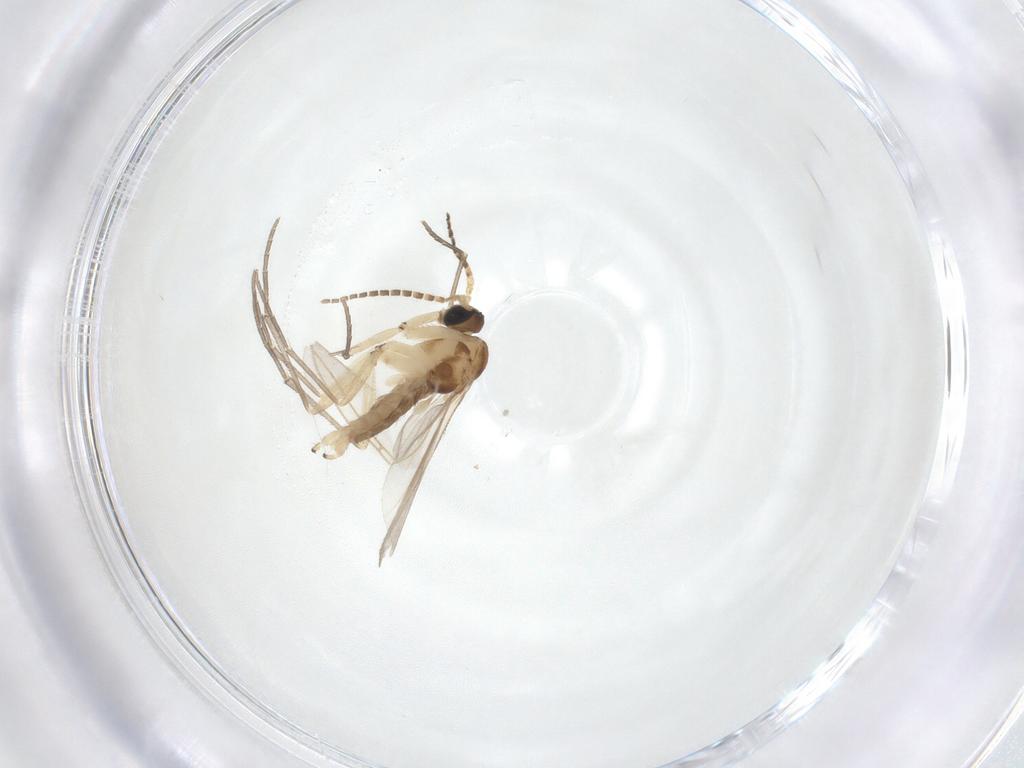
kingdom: Animalia
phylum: Arthropoda
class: Insecta
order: Diptera
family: Sciaridae
